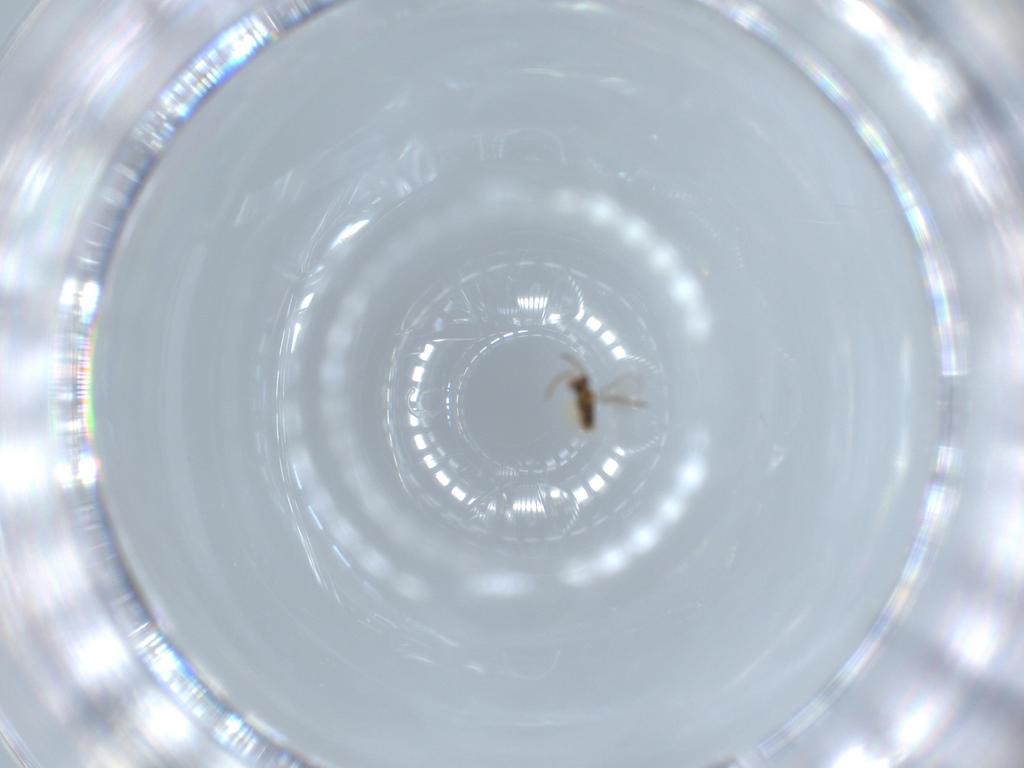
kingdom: Animalia
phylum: Arthropoda
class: Insecta
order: Hymenoptera
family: Aphelinidae
